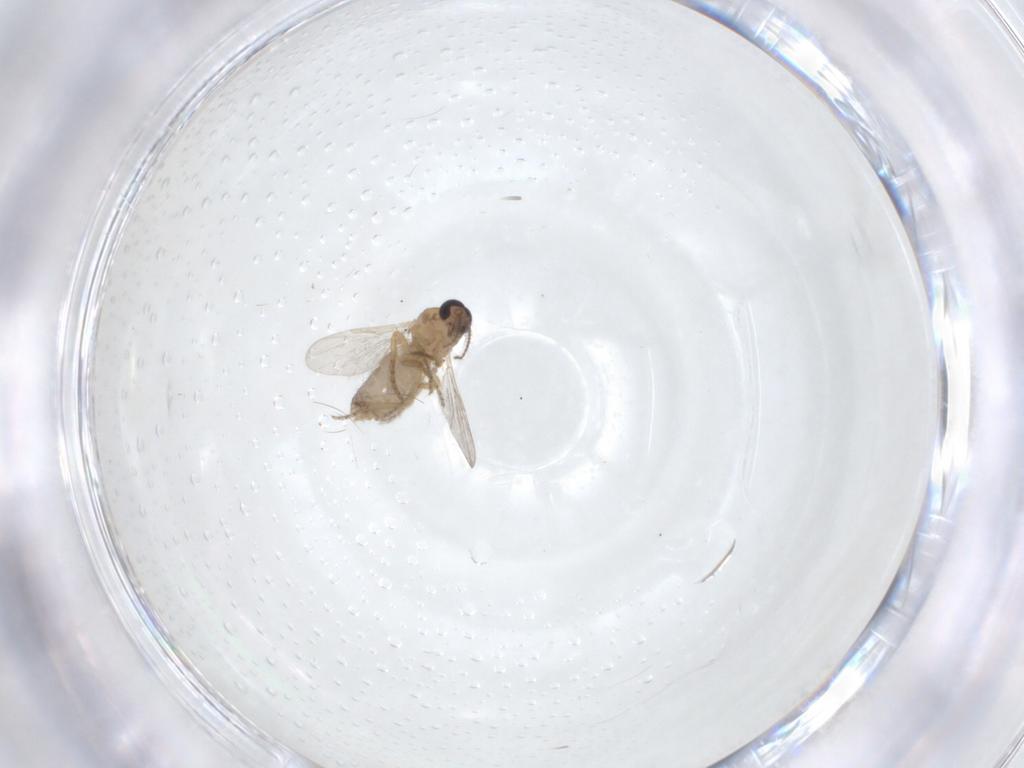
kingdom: Animalia
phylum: Arthropoda
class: Insecta
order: Diptera
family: Ceratopogonidae
